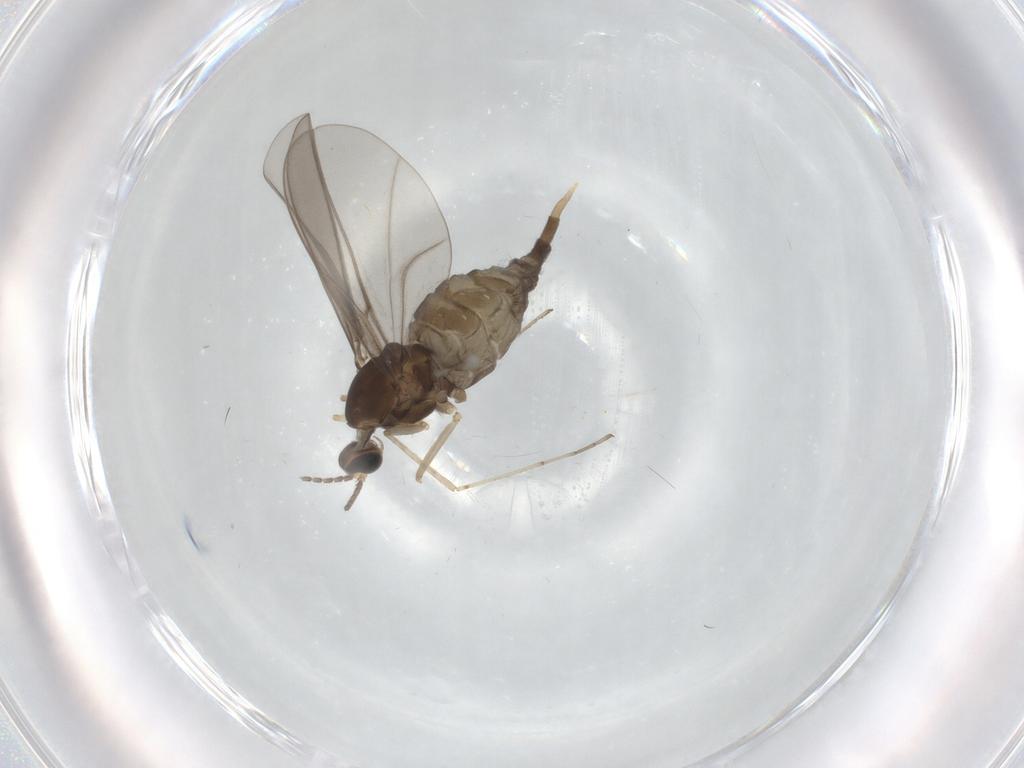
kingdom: Animalia
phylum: Arthropoda
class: Insecta
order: Diptera
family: Cecidomyiidae
